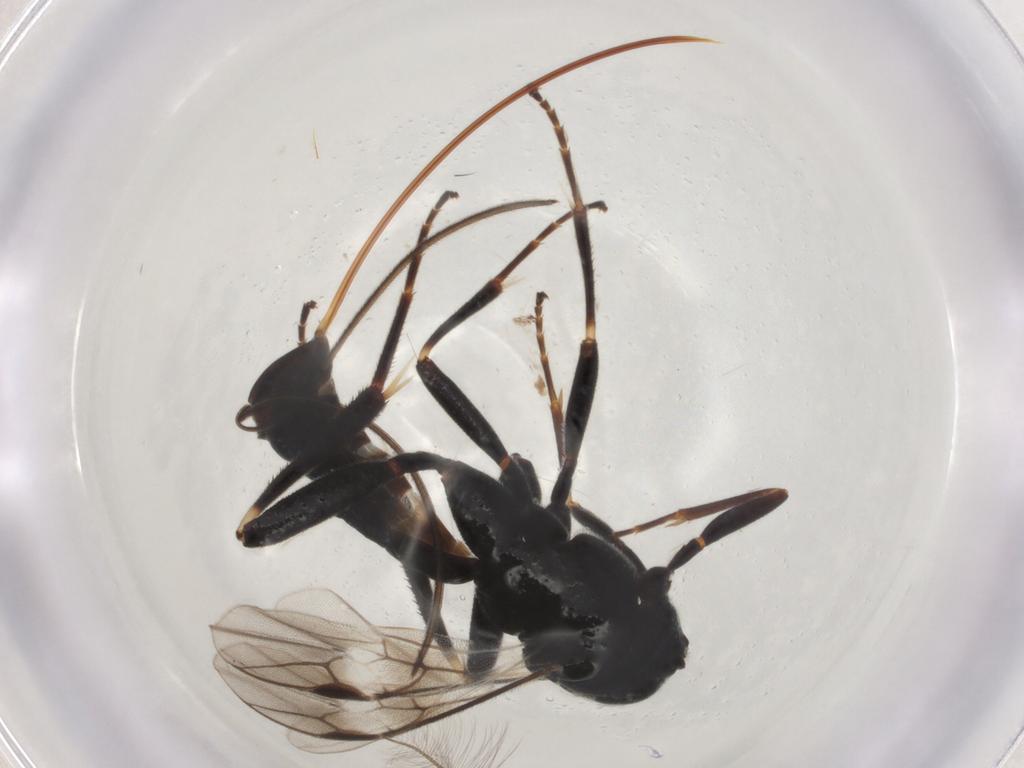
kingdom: Animalia
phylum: Arthropoda
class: Insecta
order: Hymenoptera
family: Braconidae
